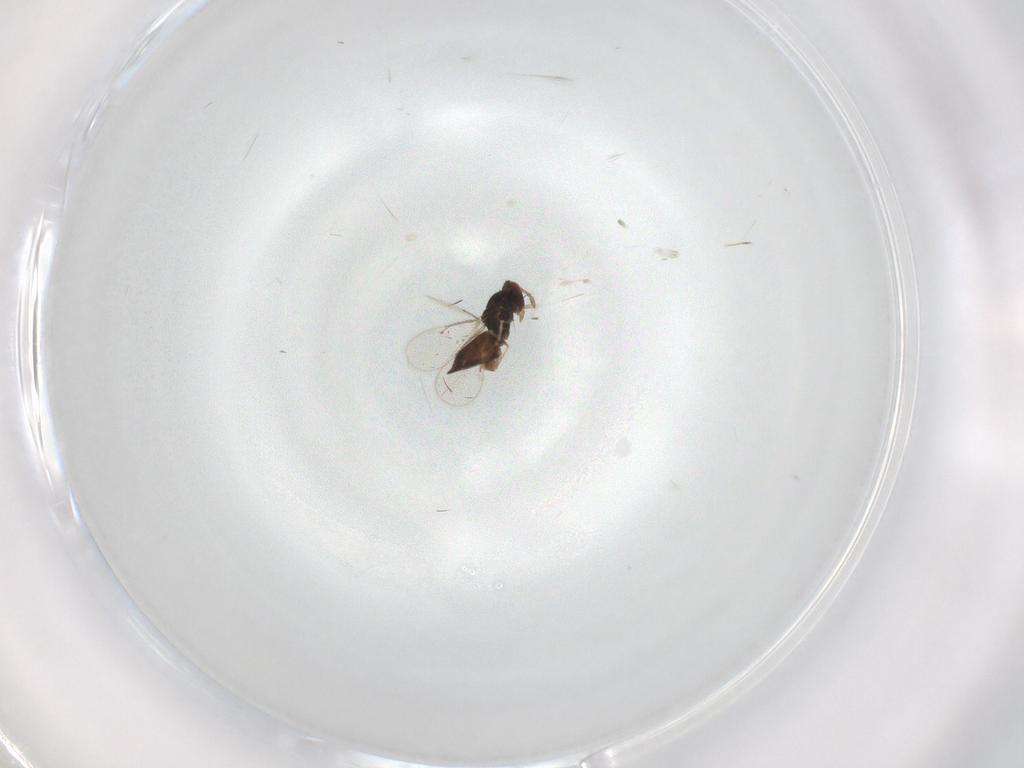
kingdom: Animalia
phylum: Arthropoda
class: Insecta
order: Hymenoptera
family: Eulophidae
